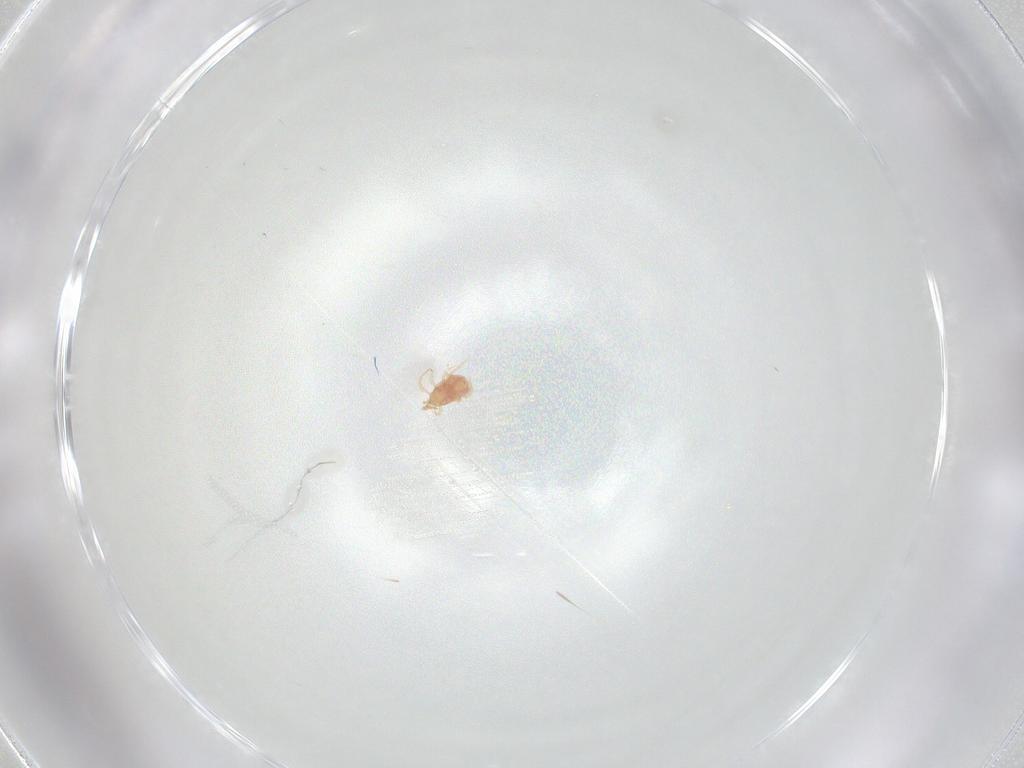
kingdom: Animalia
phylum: Arthropoda
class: Arachnida
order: Mesostigmata
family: Phytoseiidae
